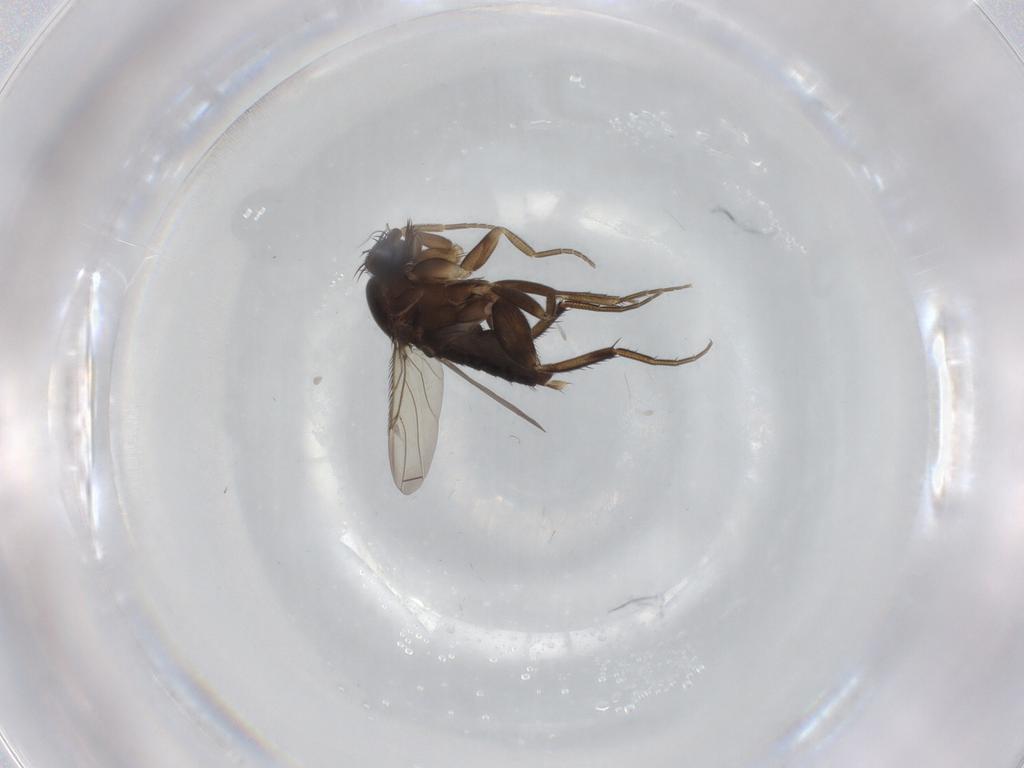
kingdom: Animalia
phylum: Arthropoda
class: Insecta
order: Diptera
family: Phoridae
